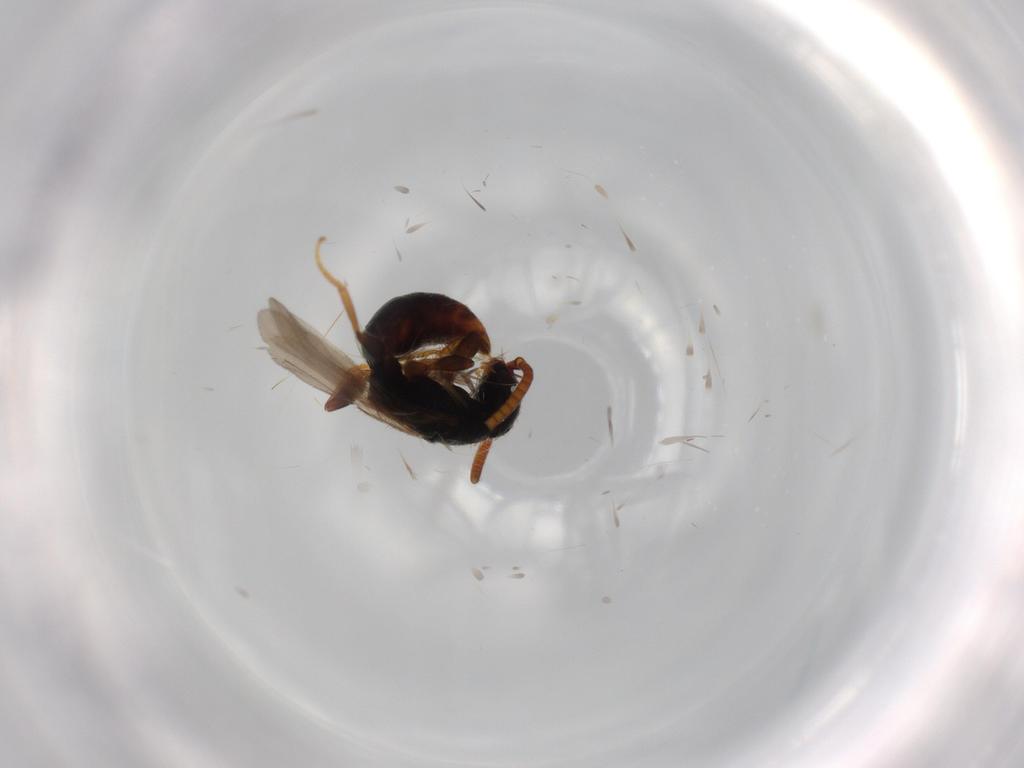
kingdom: Animalia
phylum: Arthropoda
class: Insecta
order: Hymenoptera
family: Bethylidae
